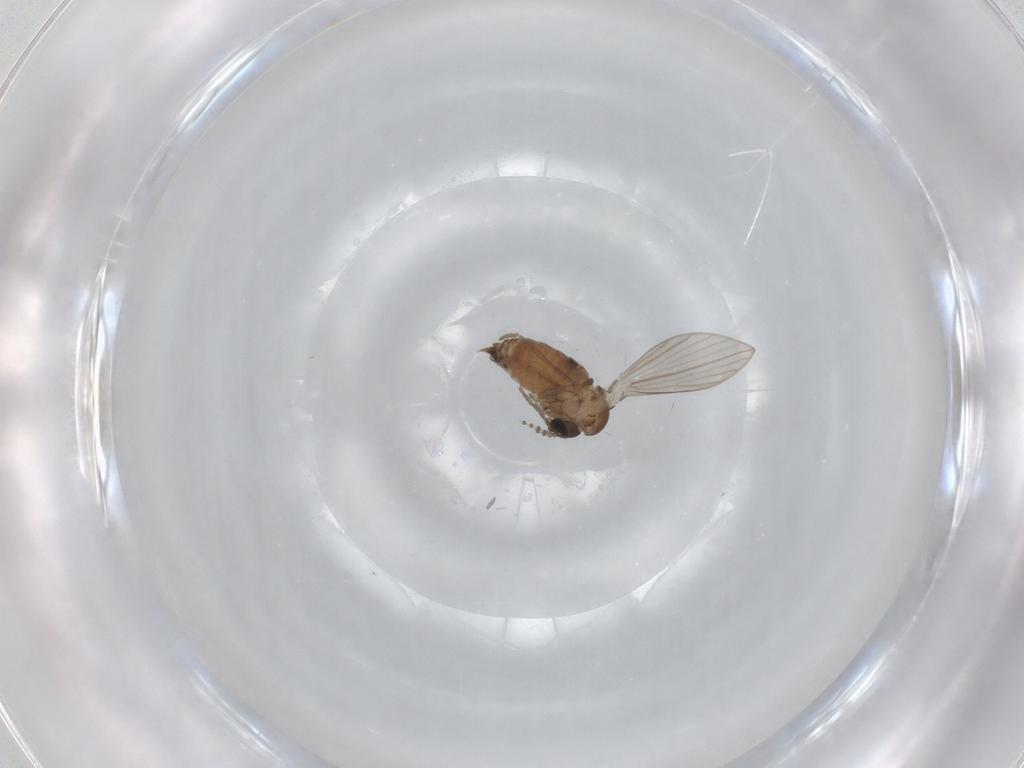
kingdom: Animalia
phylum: Arthropoda
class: Insecta
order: Diptera
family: Psychodidae
